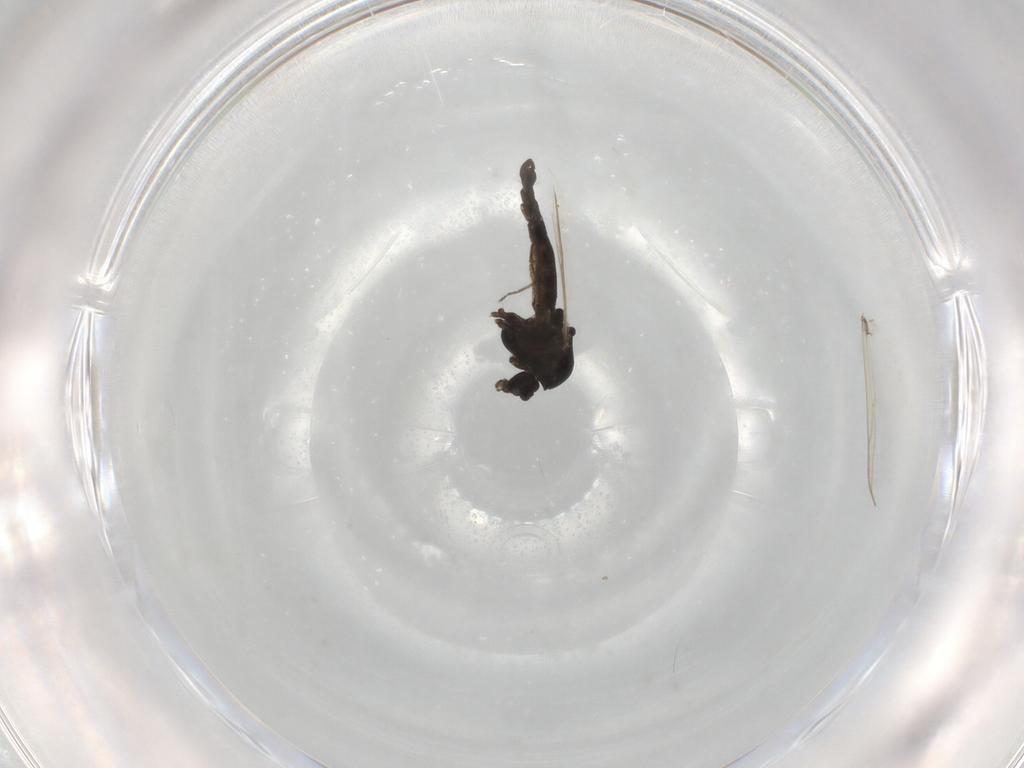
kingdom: Animalia
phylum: Arthropoda
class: Insecta
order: Diptera
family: Chironomidae
